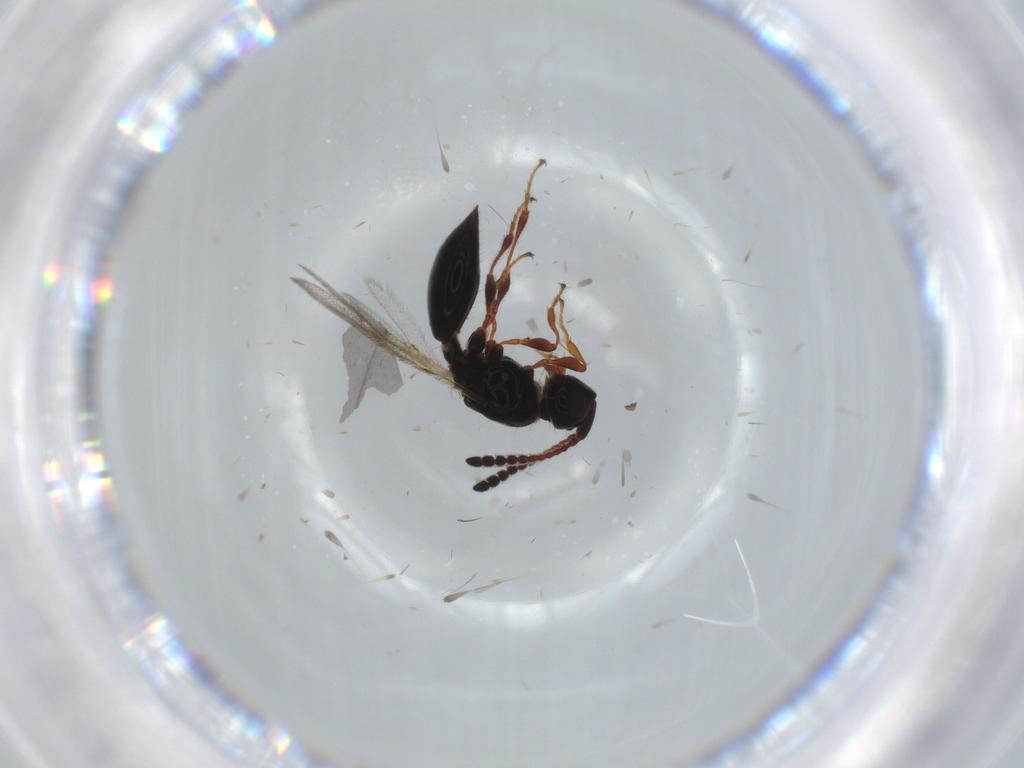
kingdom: Animalia
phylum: Arthropoda
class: Insecta
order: Hymenoptera
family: Diapriidae
